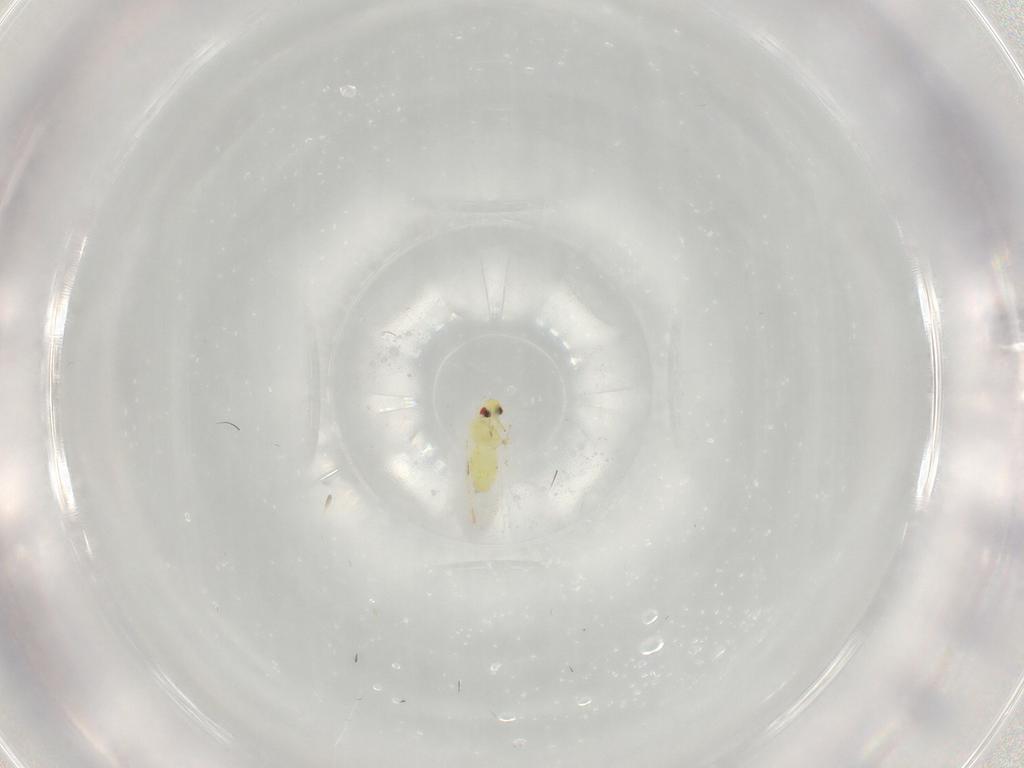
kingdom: Animalia
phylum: Arthropoda
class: Insecta
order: Hemiptera
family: Aleyrodidae
